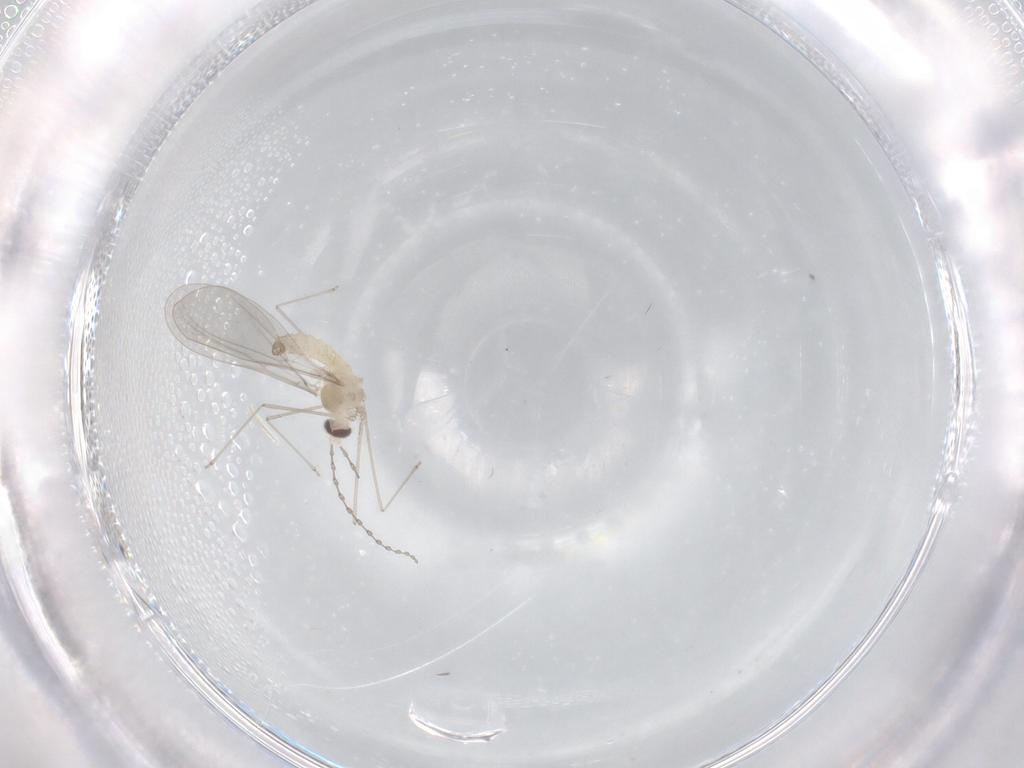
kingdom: Animalia
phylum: Arthropoda
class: Insecta
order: Diptera
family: Cecidomyiidae
